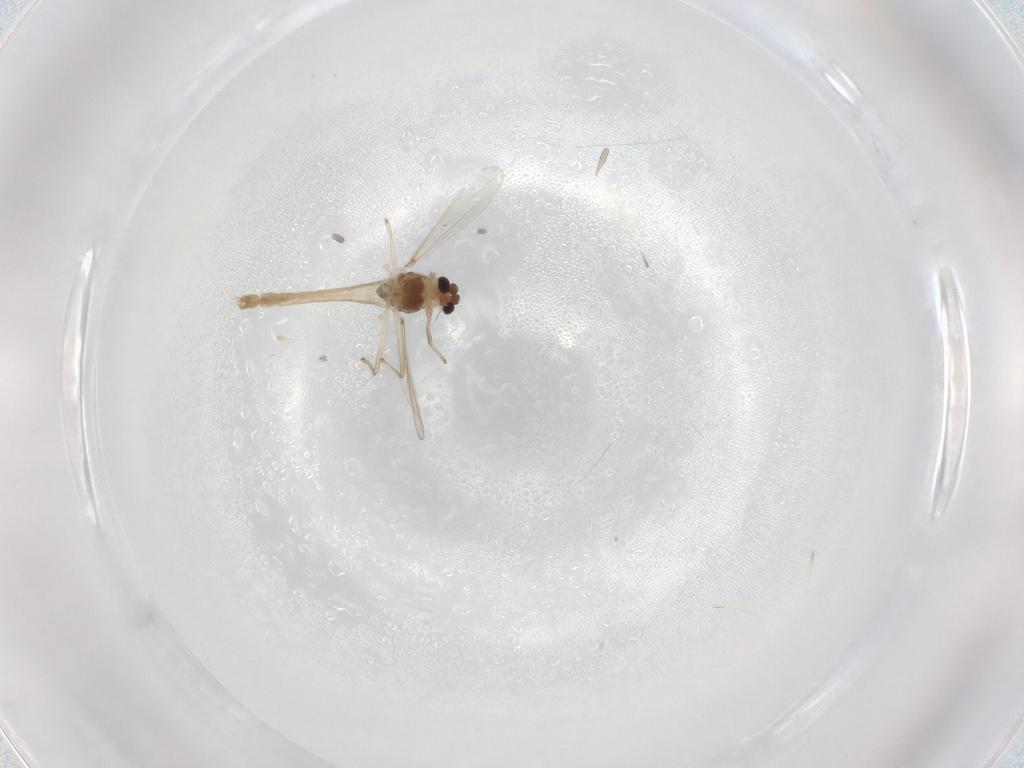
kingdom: Animalia
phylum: Arthropoda
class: Insecta
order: Diptera
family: Chironomidae
